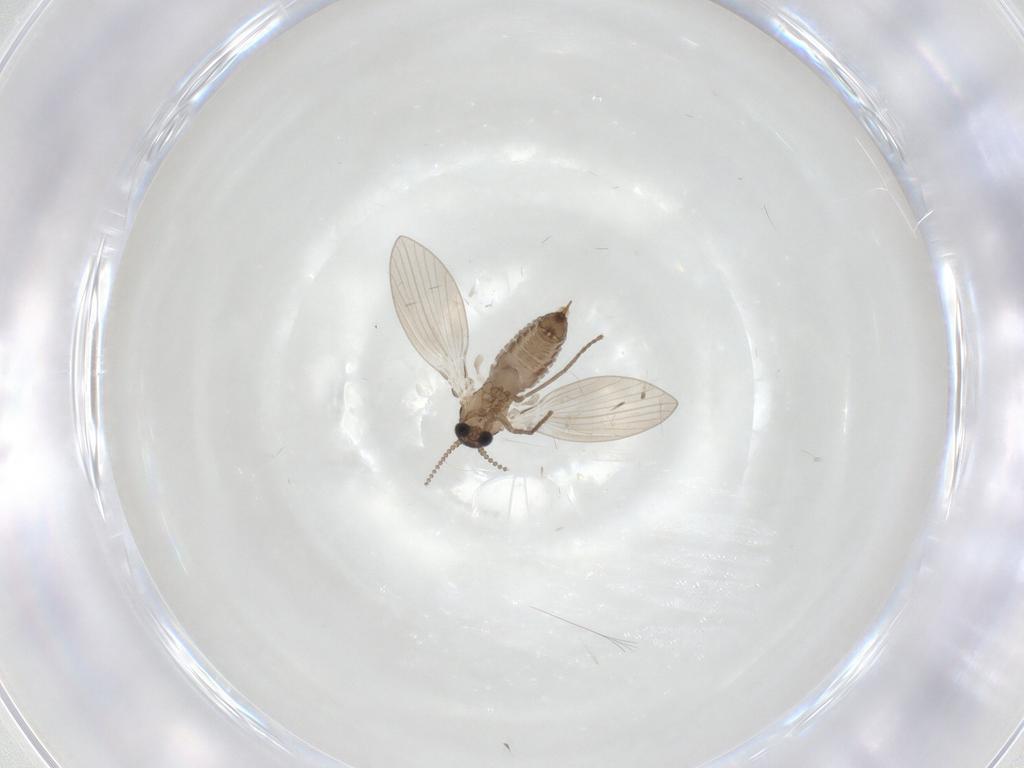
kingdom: Animalia
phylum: Arthropoda
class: Insecta
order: Diptera
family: Psychodidae
